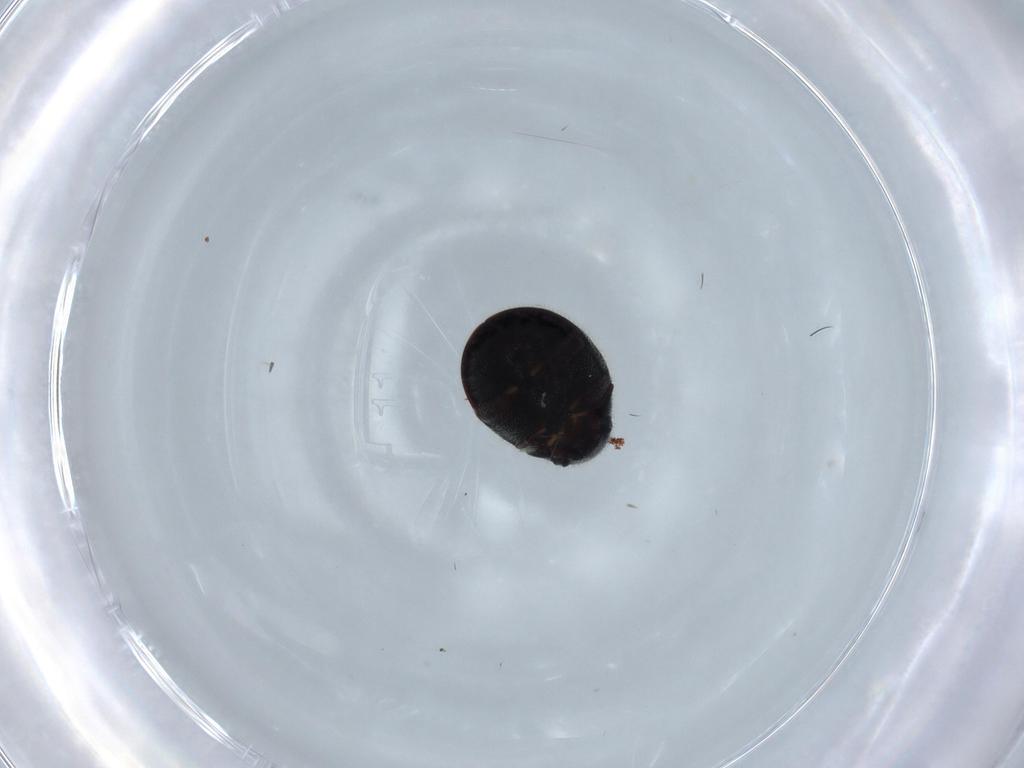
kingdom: Animalia
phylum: Arthropoda
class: Insecta
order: Coleoptera
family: Ptinidae
